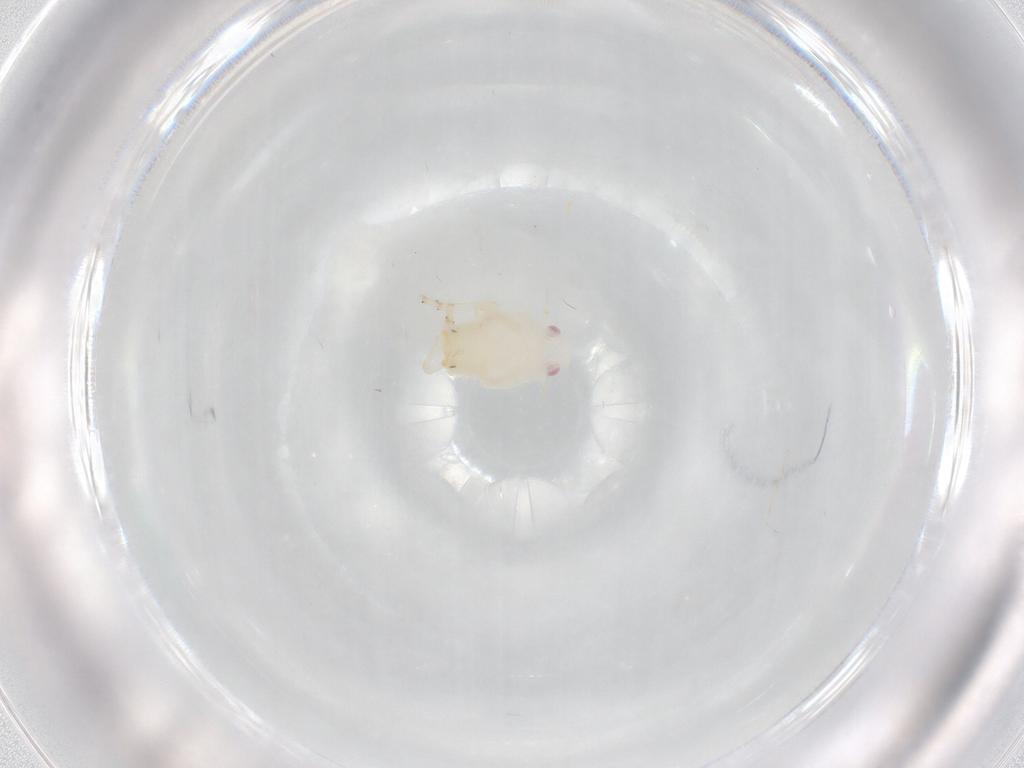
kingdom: Animalia
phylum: Arthropoda
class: Insecta
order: Hemiptera
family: Flatidae
